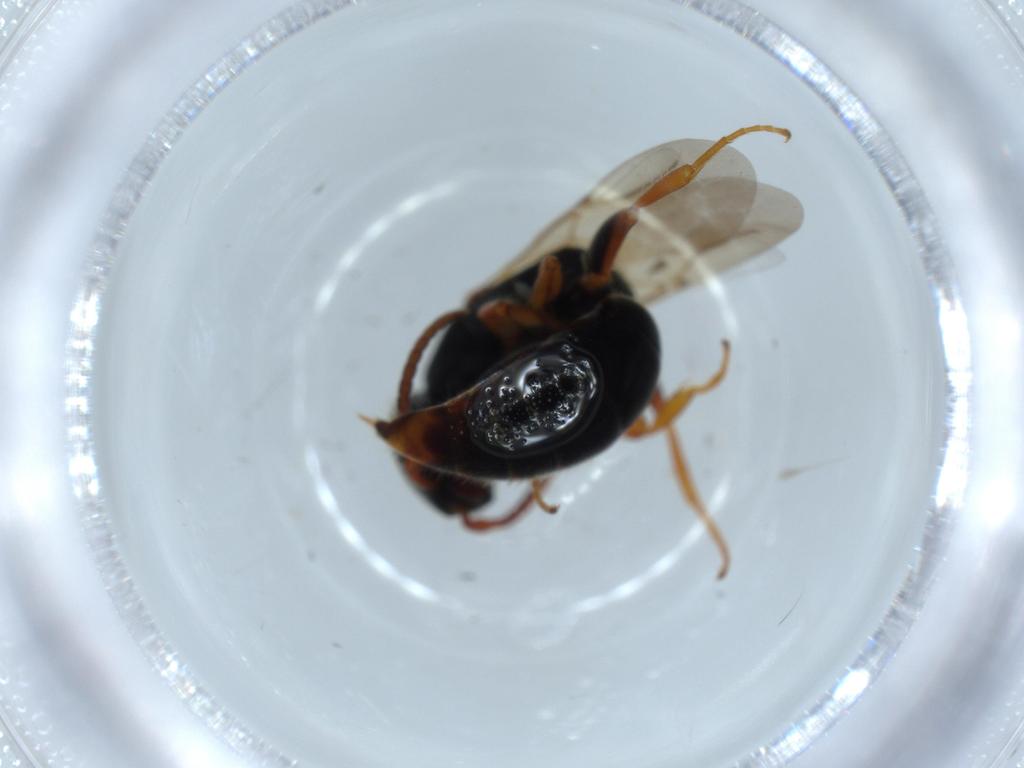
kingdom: Animalia
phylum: Arthropoda
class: Insecta
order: Hymenoptera
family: Bethylidae
